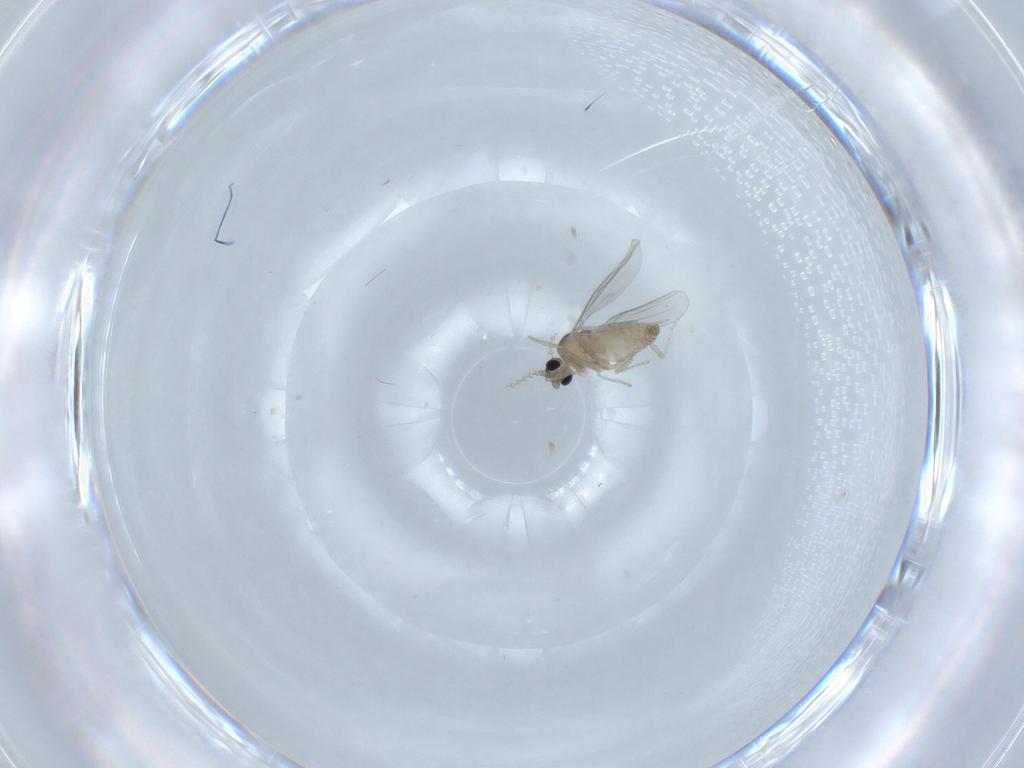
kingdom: Animalia
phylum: Arthropoda
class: Insecta
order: Diptera
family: Cecidomyiidae
